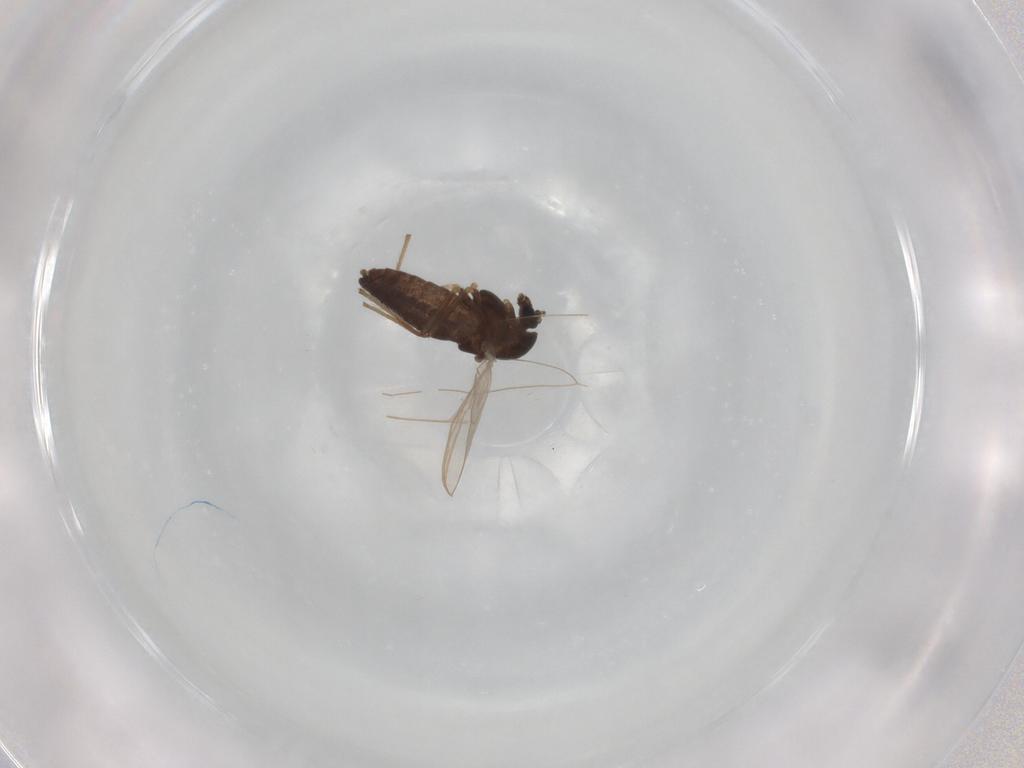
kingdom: Animalia
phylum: Arthropoda
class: Insecta
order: Diptera
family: Chironomidae
